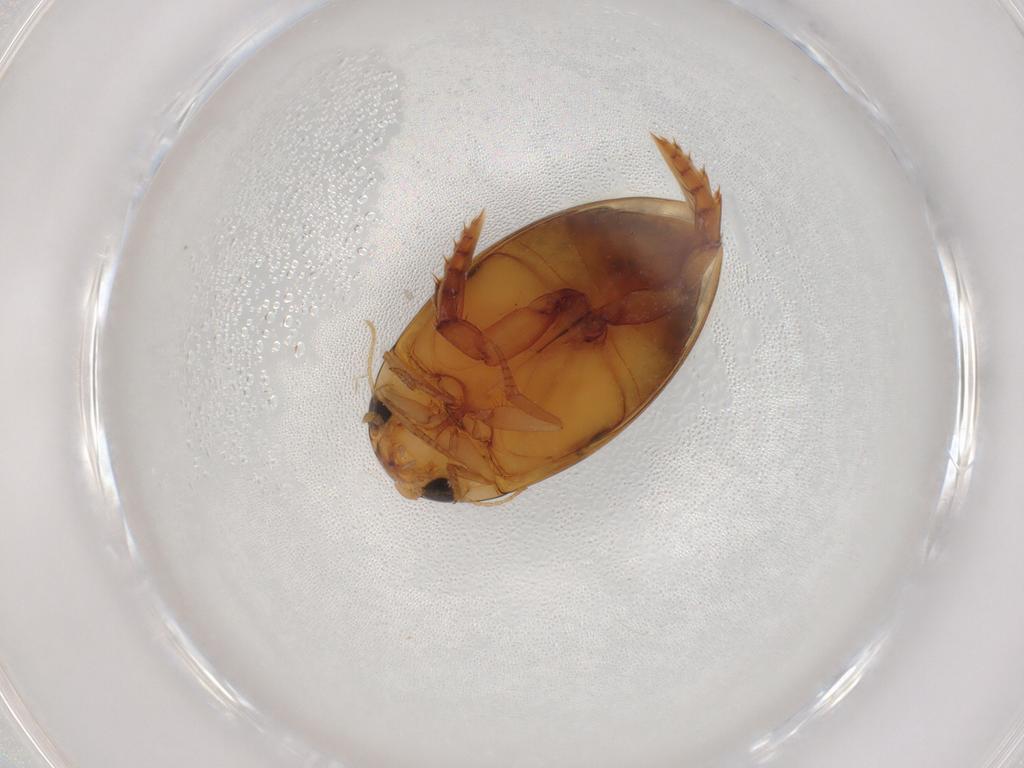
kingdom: Animalia
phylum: Arthropoda
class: Insecta
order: Coleoptera
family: Dytiscidae
